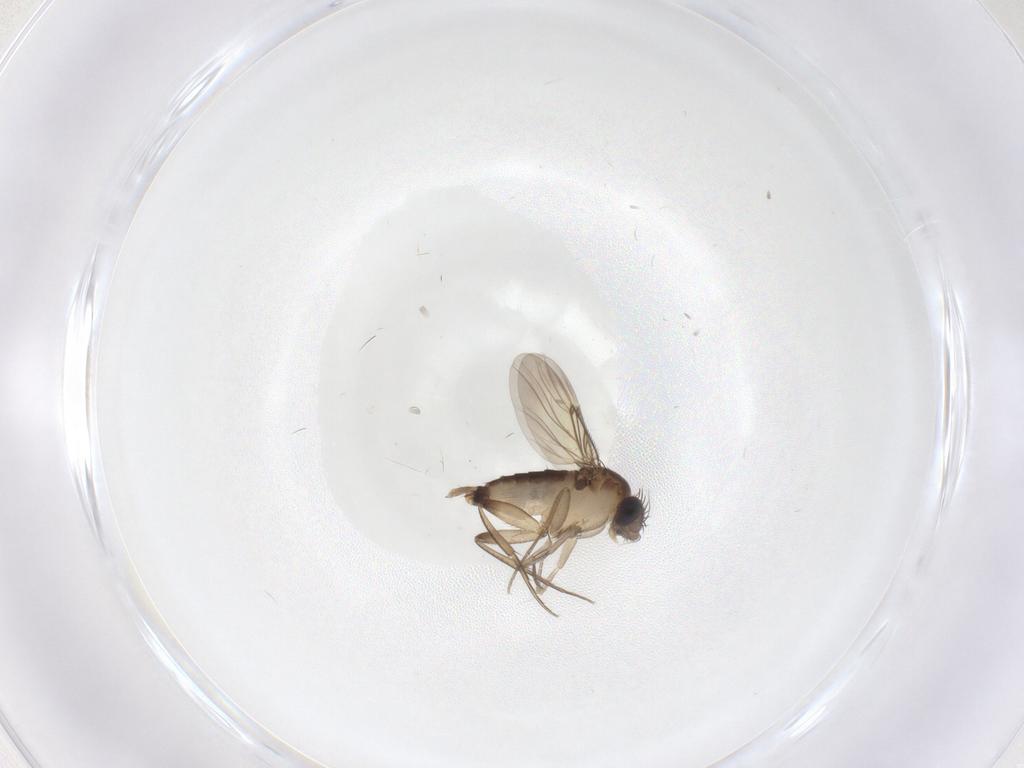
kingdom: Animalia
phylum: Arthropoda
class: Insecta
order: Diptera
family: Phoridae
